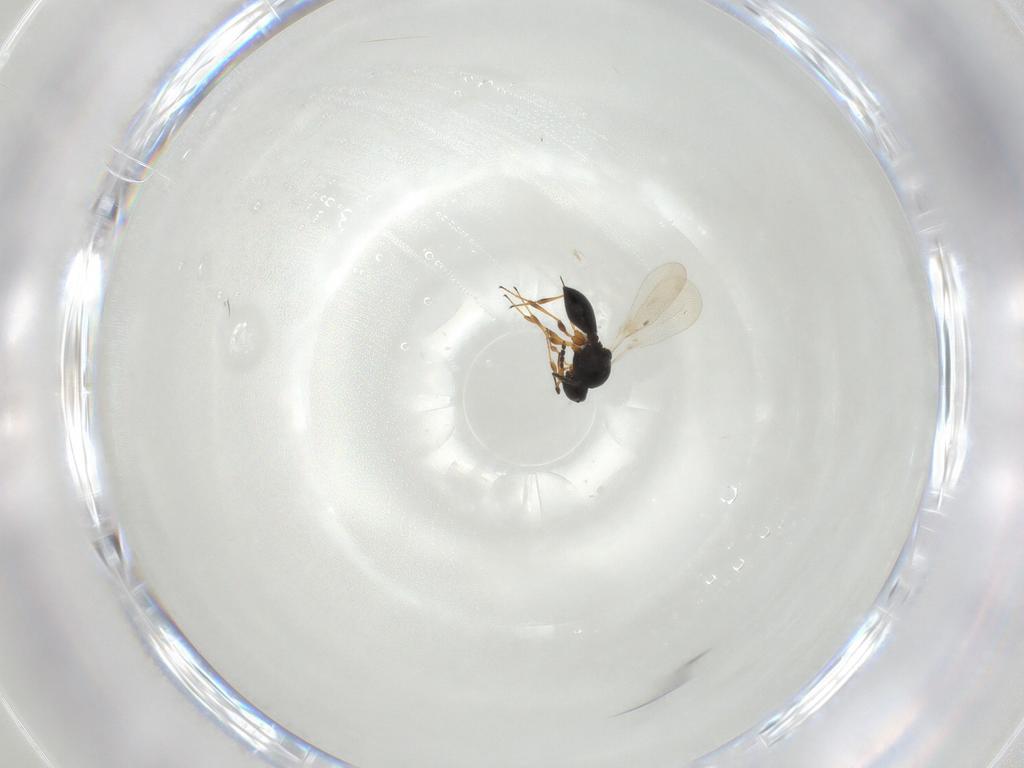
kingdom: Animalia
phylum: Arthropoda
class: Insecta
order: Hymenoptera
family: Platygastridae
